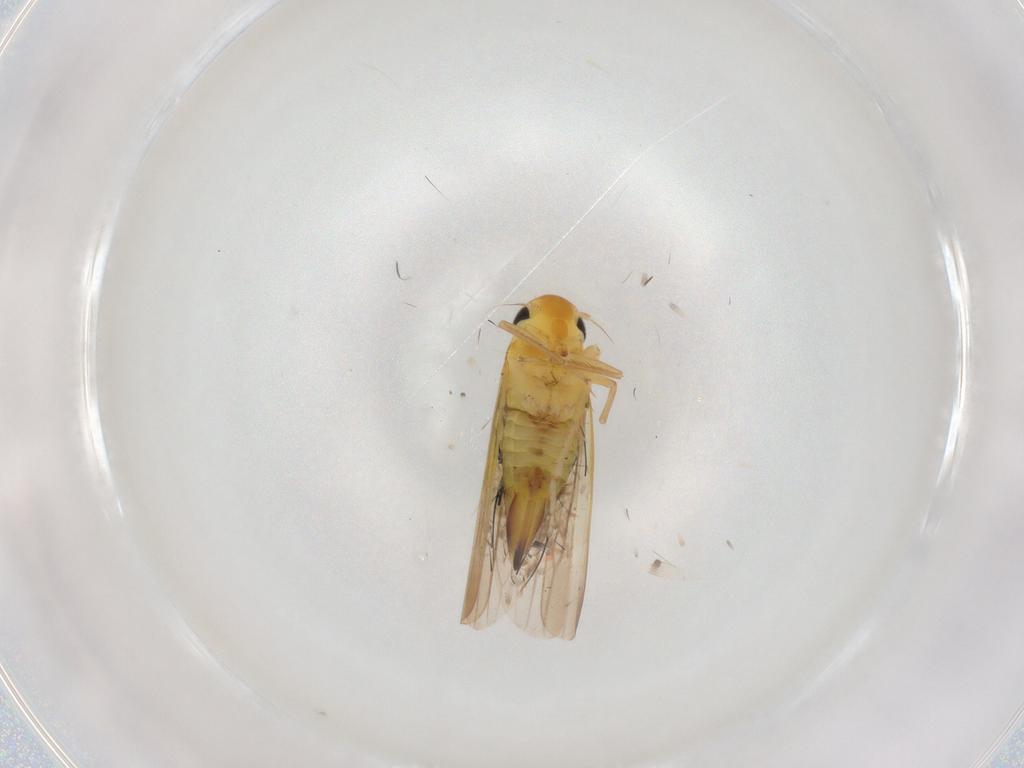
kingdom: Animalia
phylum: Arthropoda
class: Insecta
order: Hemiptera
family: Cicadellidae
